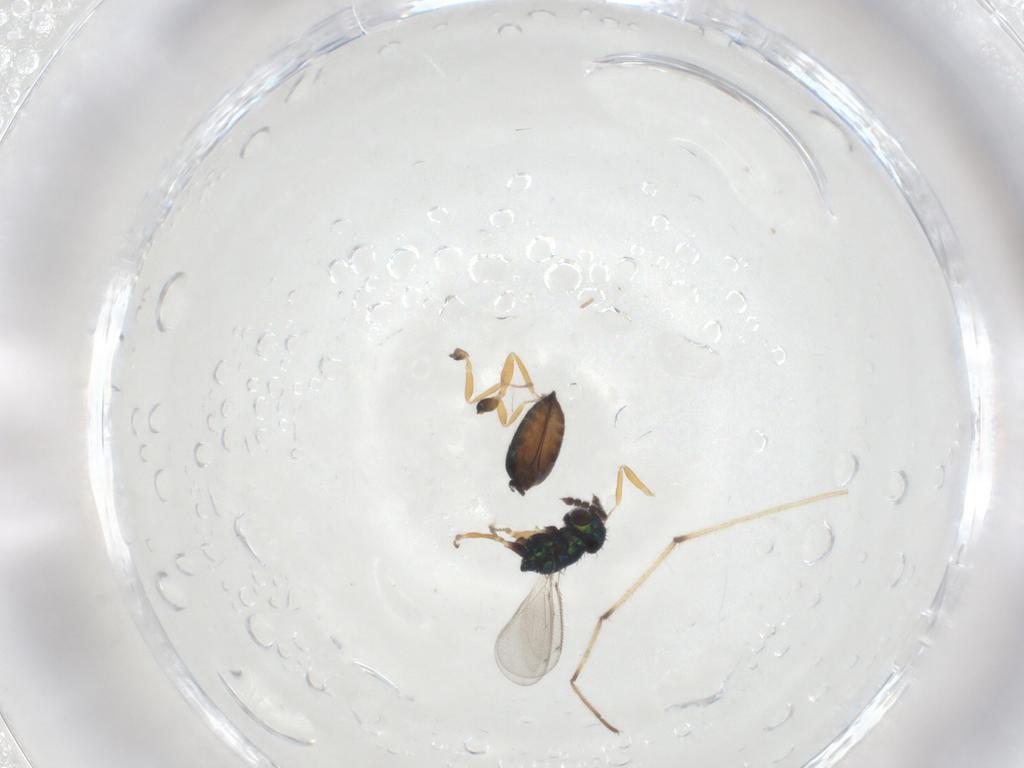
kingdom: Animalia
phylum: Arthropoda
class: Insecta
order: Hymenoptera
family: Eulophidae
